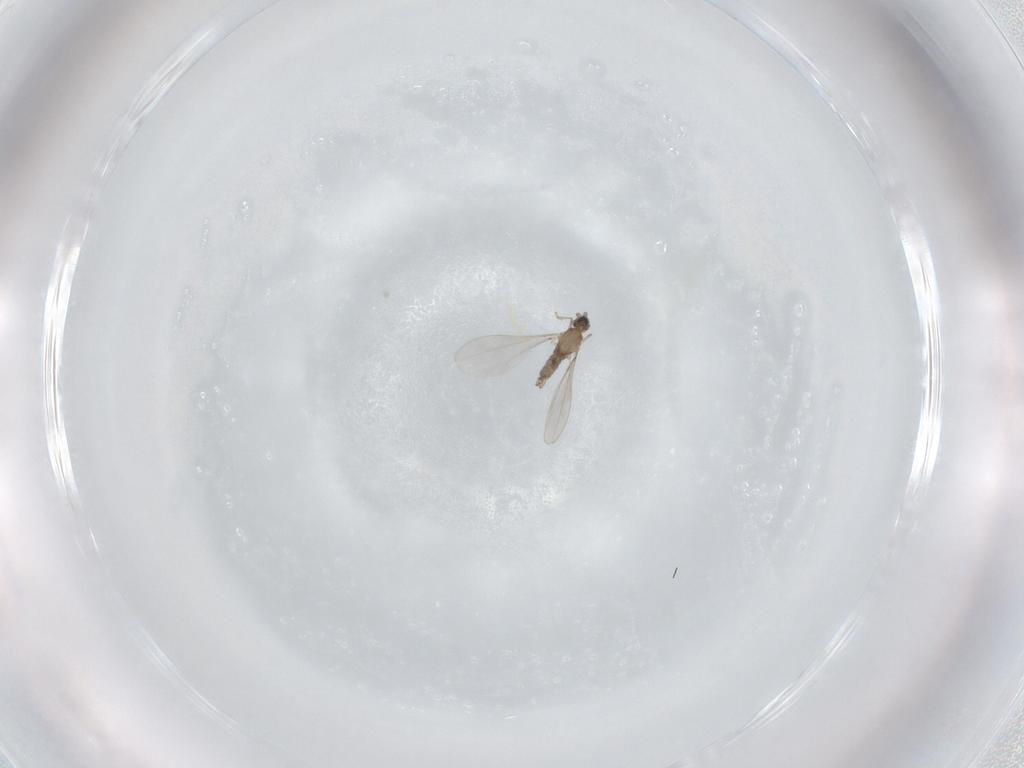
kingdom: Animalia
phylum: Arthropoda
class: Insecta
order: Diptera
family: Cecidomyiidae
